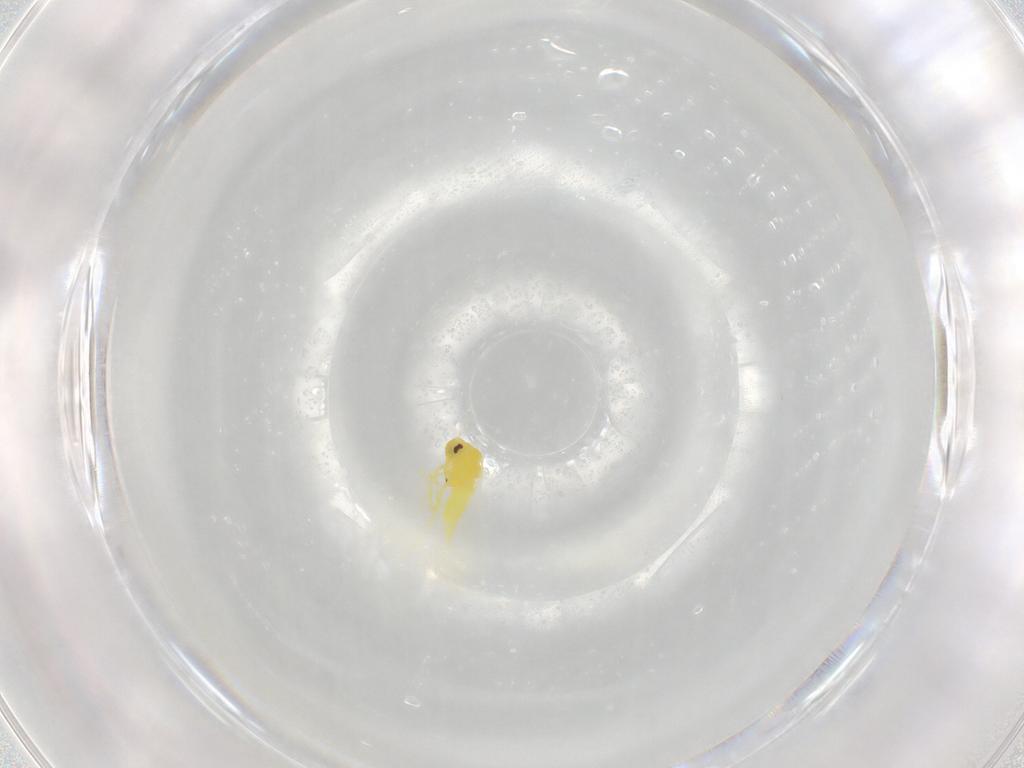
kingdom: Animalia
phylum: Arthropoda
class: Insecta
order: Hemiptera
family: Aleyrodidae
